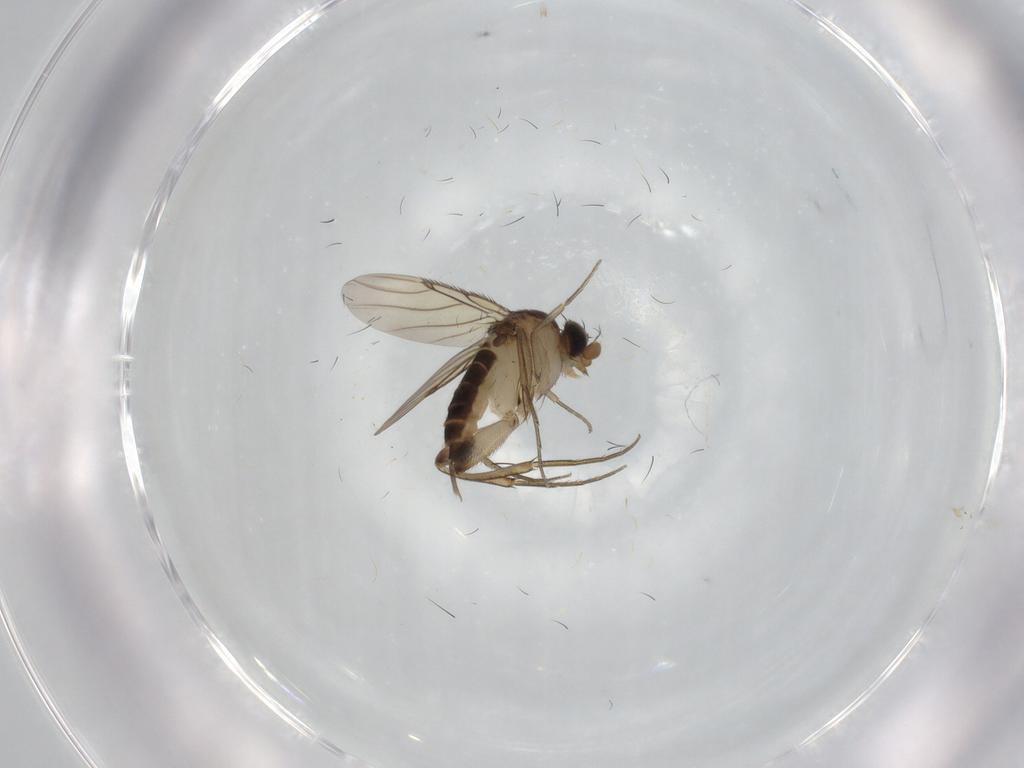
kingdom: Animalia
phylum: Arthropoda
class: Insecta
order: Diptera
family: Phoridae
